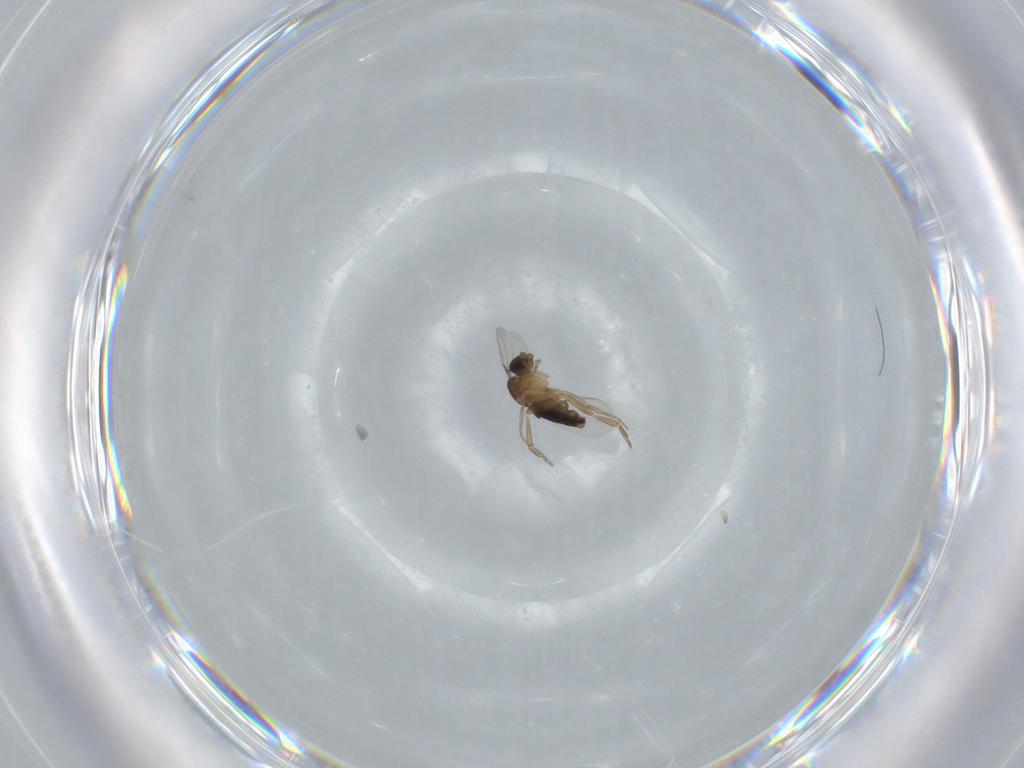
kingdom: Animalia
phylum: Arthropoda
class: Insecta
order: Diptera
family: Phoridae
